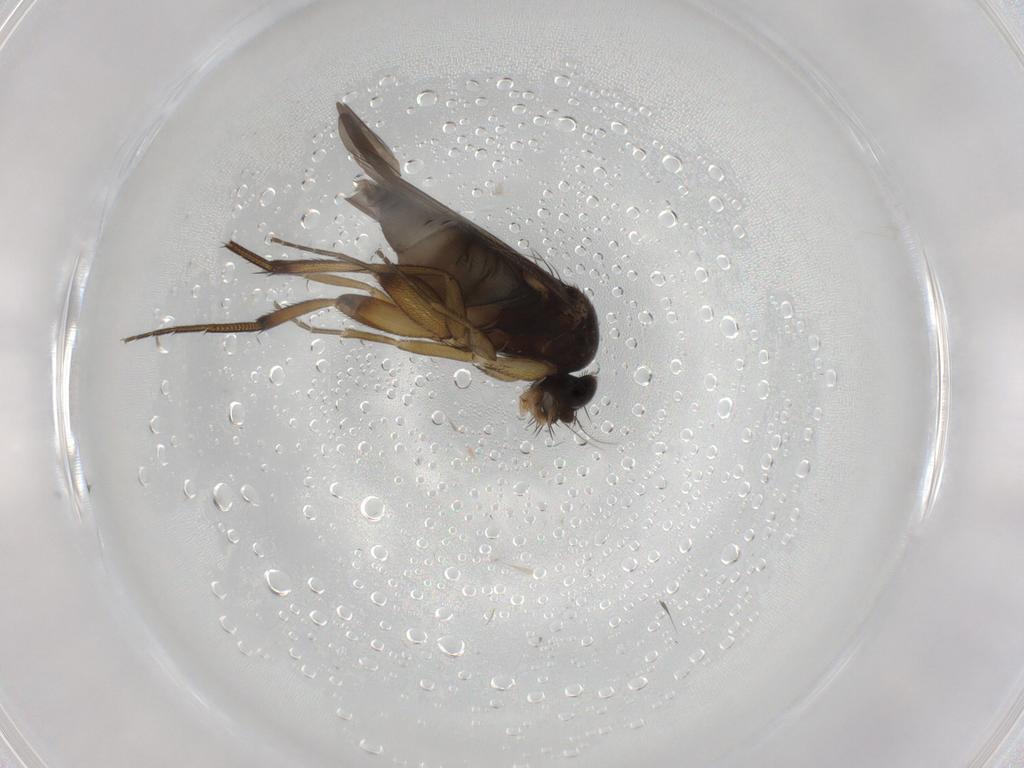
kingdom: Animalia
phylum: Arthropoda
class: Insecta
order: Diptera
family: Phoridae
